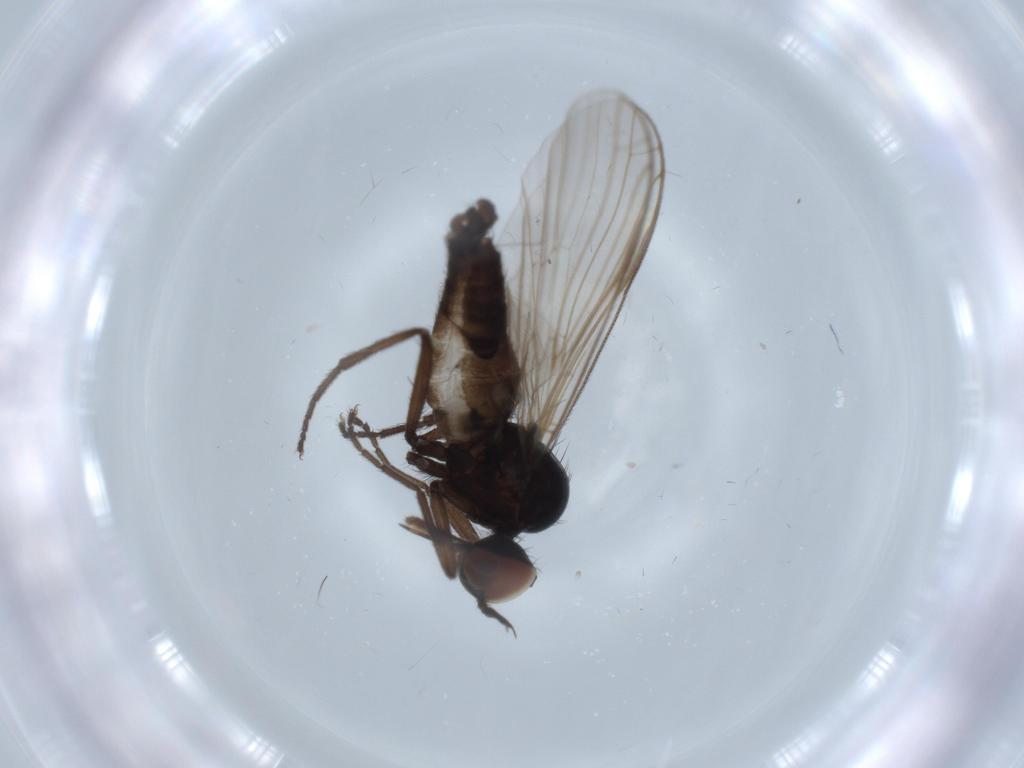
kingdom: Animalia
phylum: Arthropoda
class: Insecta
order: Diptera
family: Empididae
